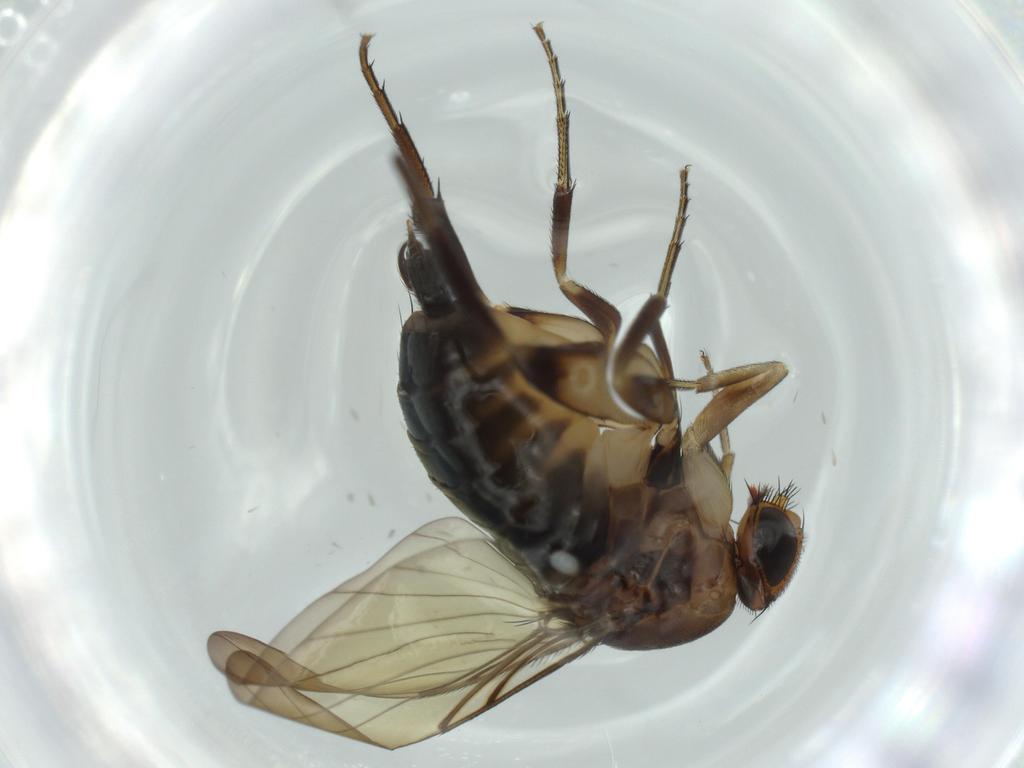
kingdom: Animalia
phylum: Arthropoda
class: Insecta
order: Diptera
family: Phoridae
